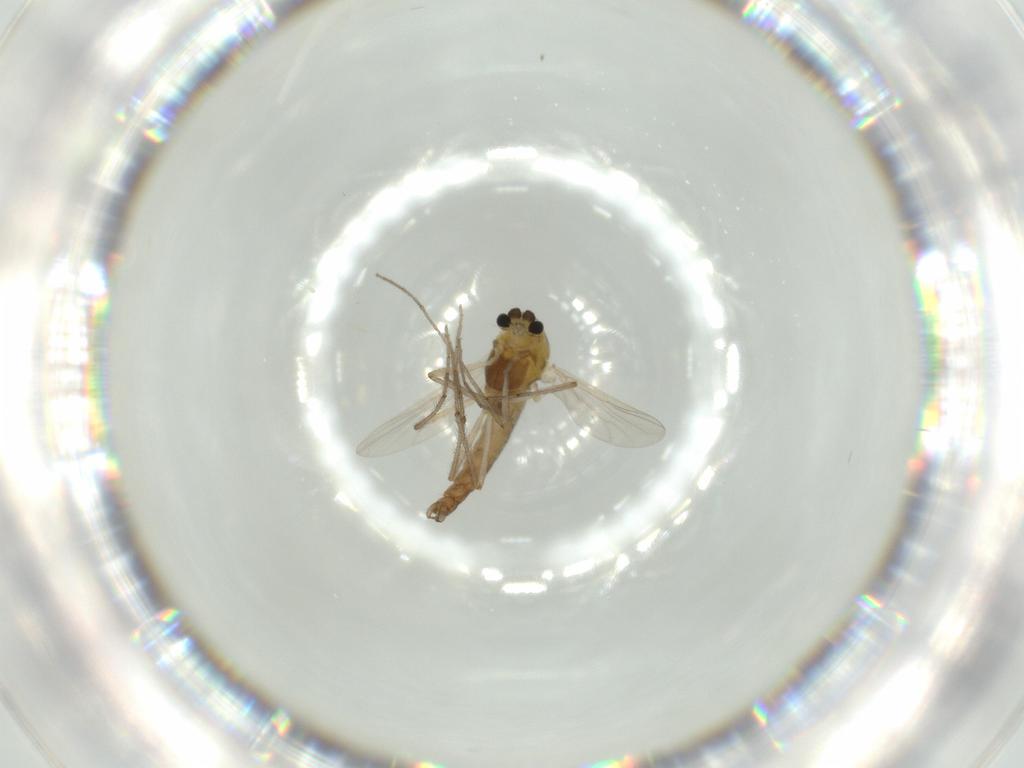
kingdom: Animalia
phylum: Arthropoda
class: Insecta
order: Diptera
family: Chironomidae
